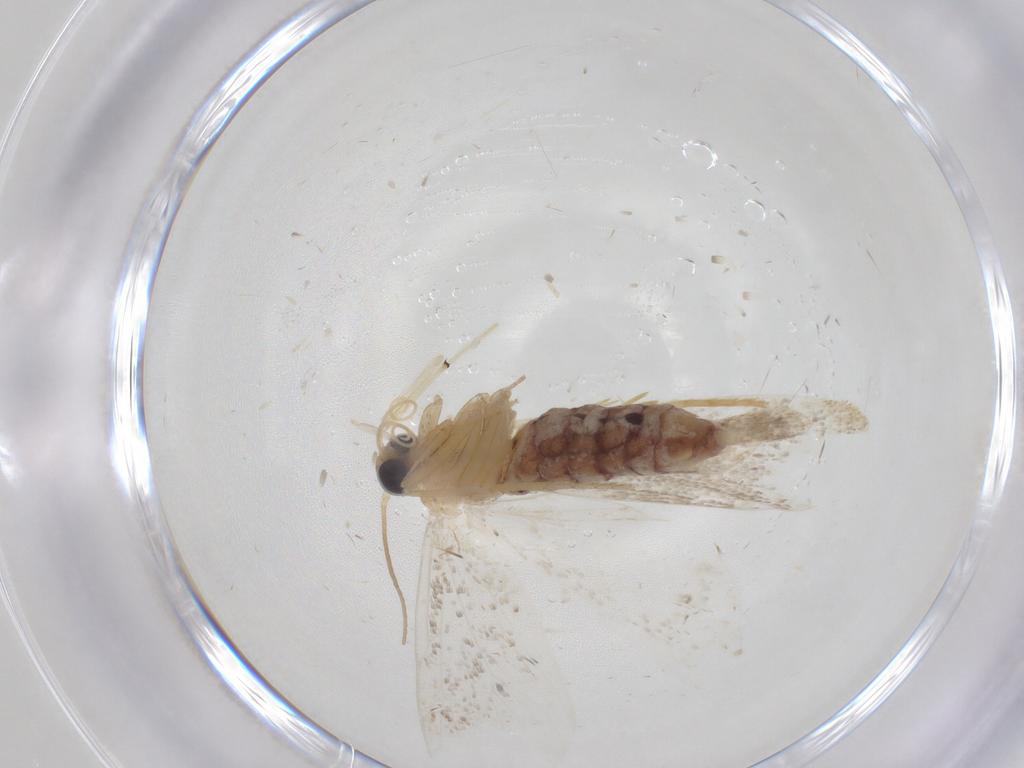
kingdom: Animalia
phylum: Arthropoda
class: Insecta
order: Lepidoptera
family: Crambidae
